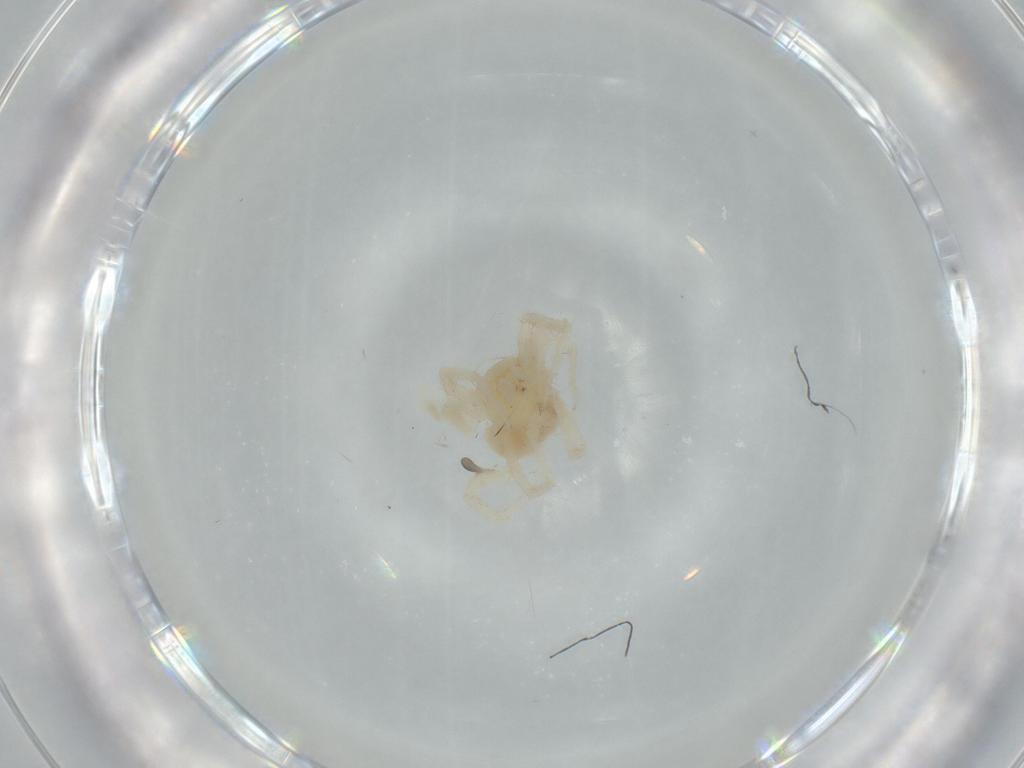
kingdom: Animalia
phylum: Arthropoda
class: Arachnida
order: Trombidiformes
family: Anystidae
